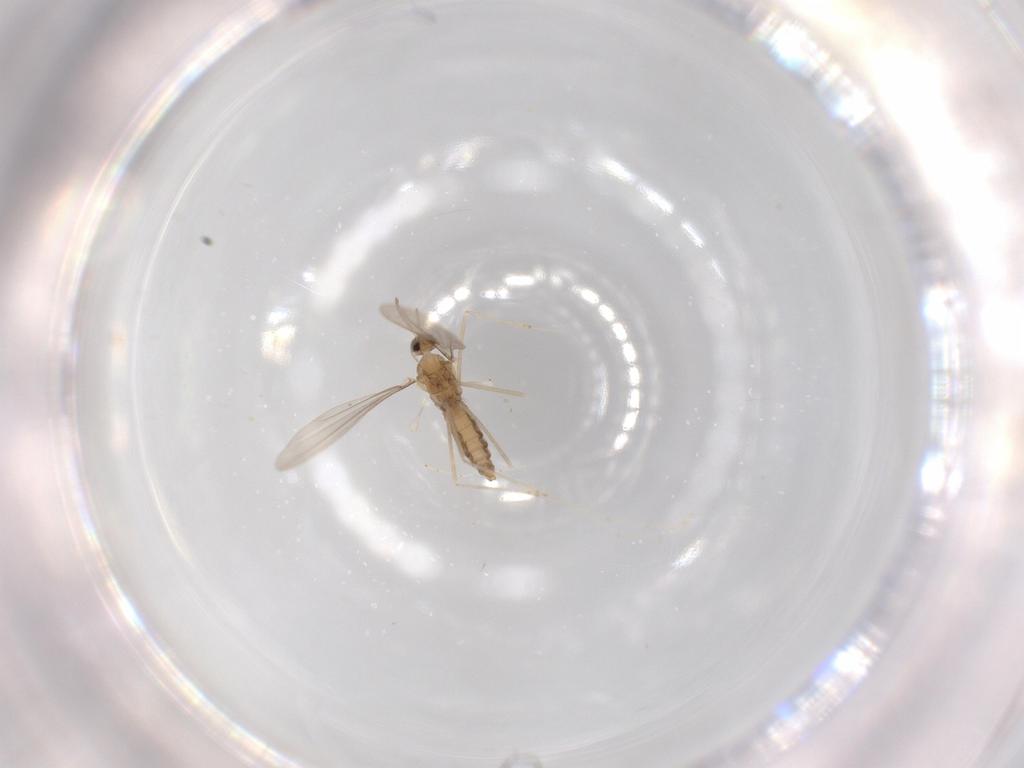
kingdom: Animalia
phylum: Arthropoda
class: Insecta
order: Diptera
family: Cecidomyiidae
